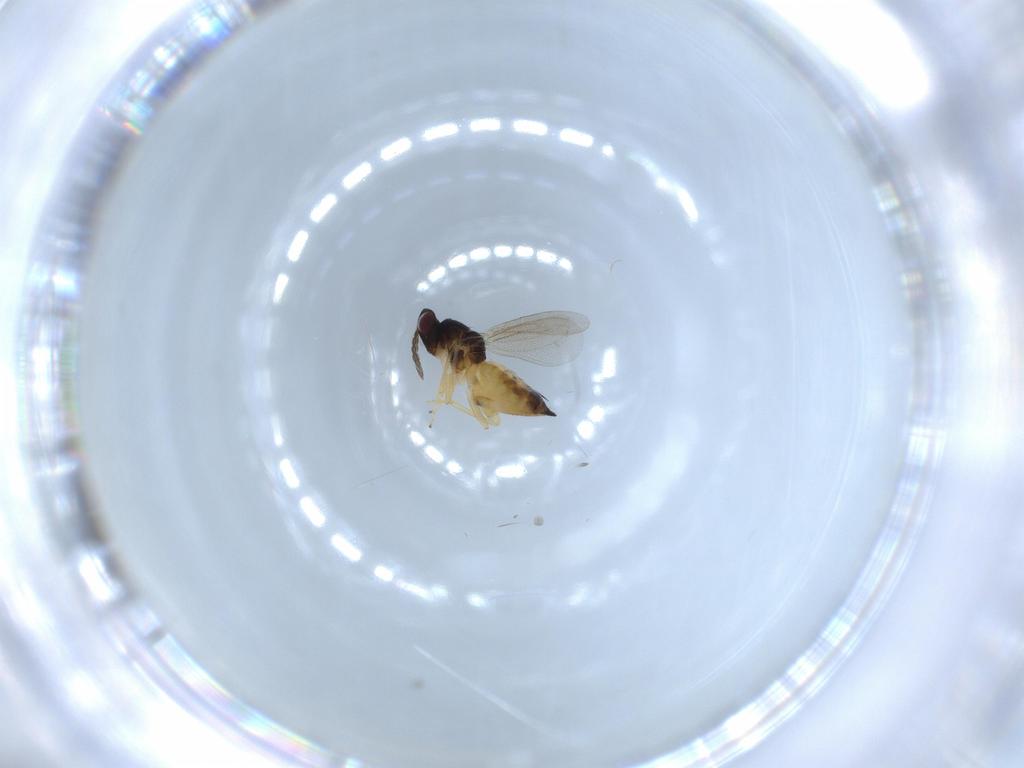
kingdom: Animalia
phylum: Arthropoda
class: Insecta
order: Hymenoptera
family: Eulophidae
